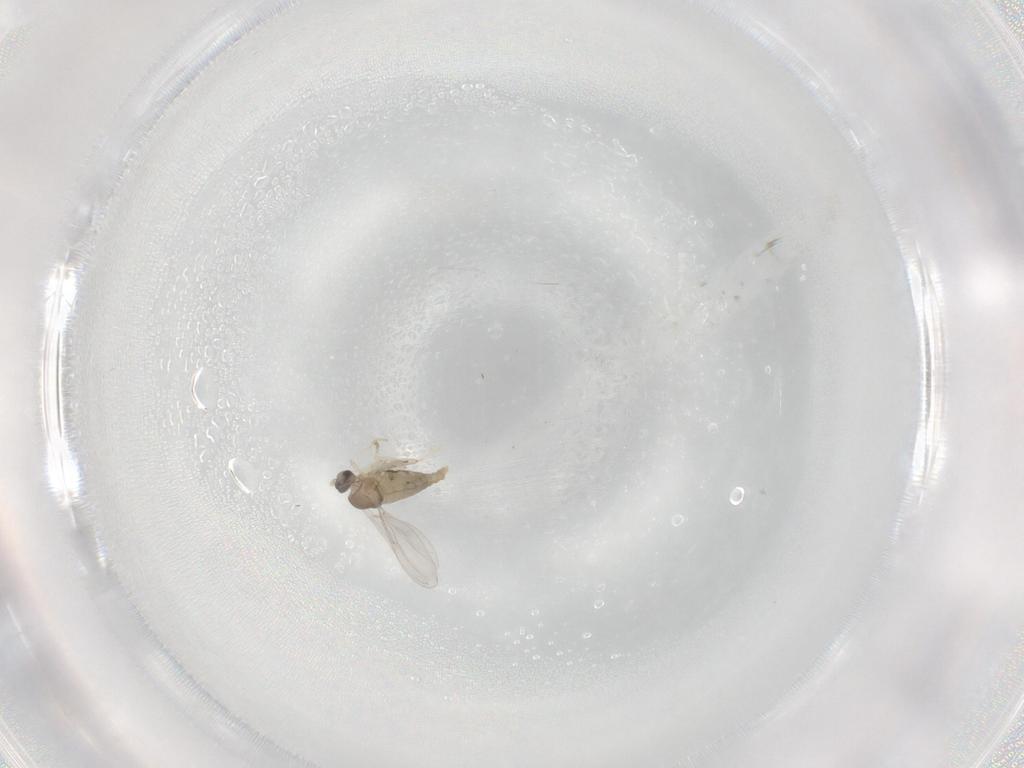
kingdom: Animalia
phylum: Arthropoda
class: Insecta
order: Diptera
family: Cecidomyiidae
